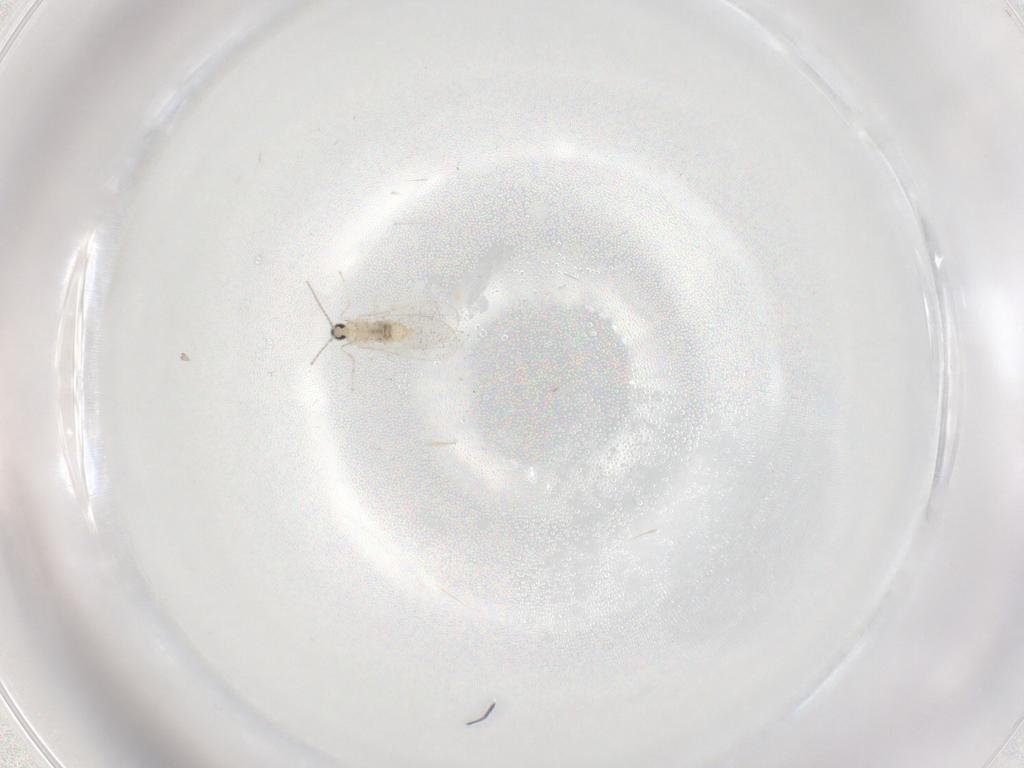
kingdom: Animalia
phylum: Arthropoda
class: Insecta
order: Diptera
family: Cecidomyiidae
